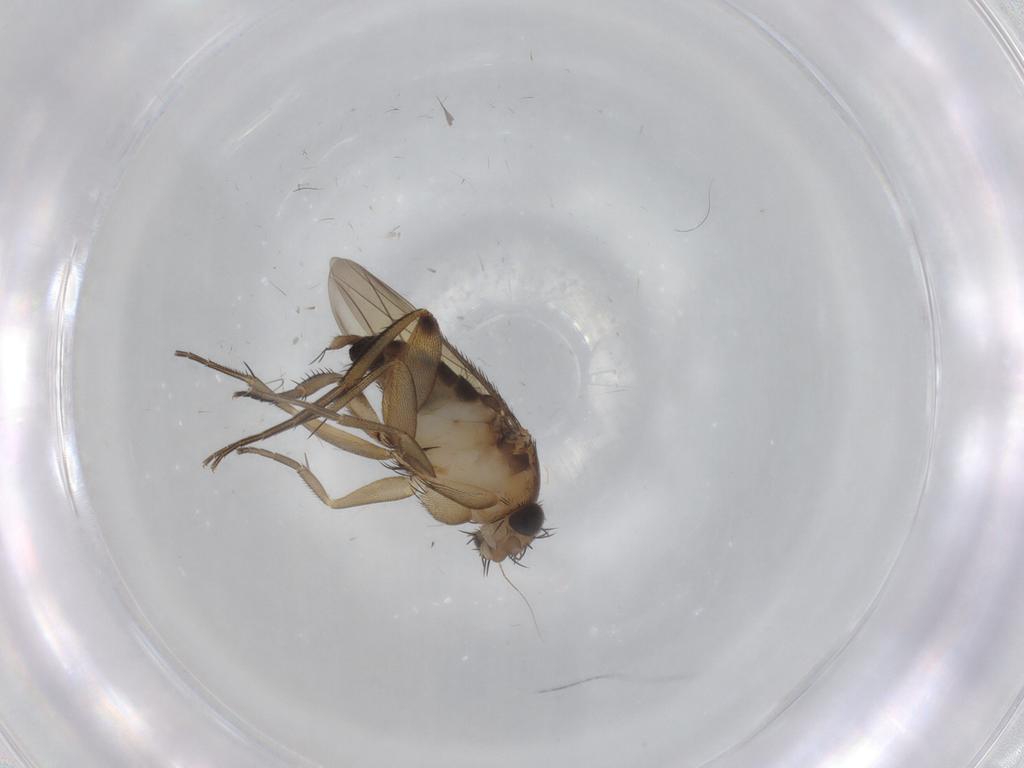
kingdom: Animalia
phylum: Arthropoda
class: Insecta
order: Diptera
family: Phoridae
